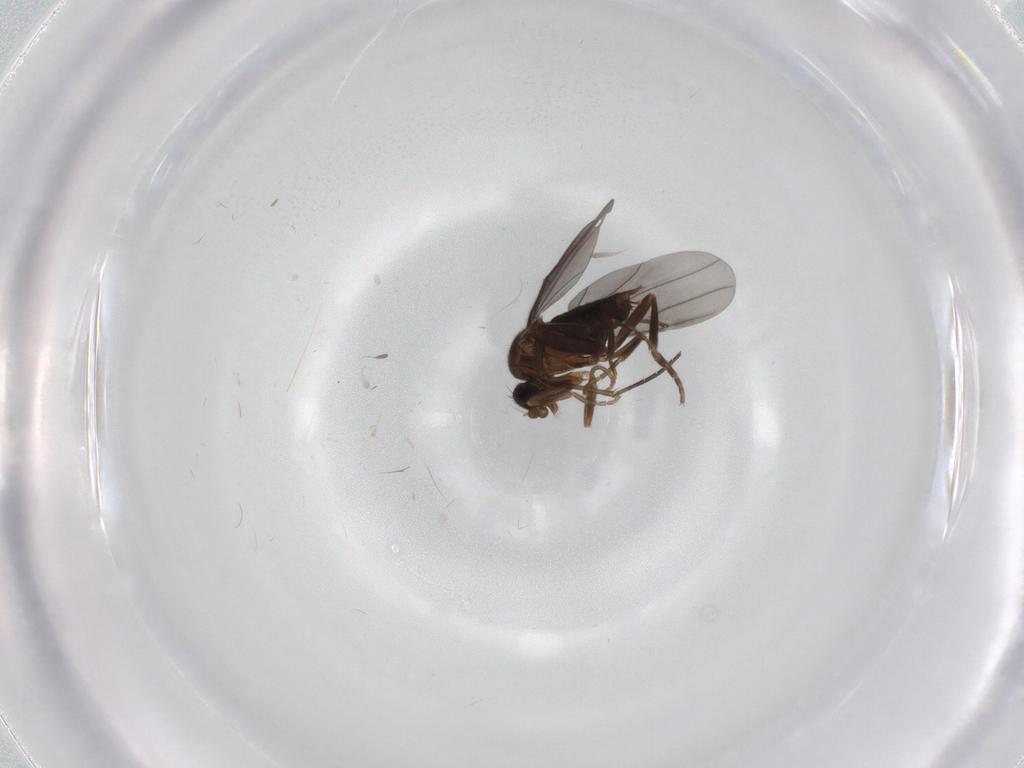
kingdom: Animalia
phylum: Arthropoda
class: Insecta
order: Diptera
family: Phoridae
